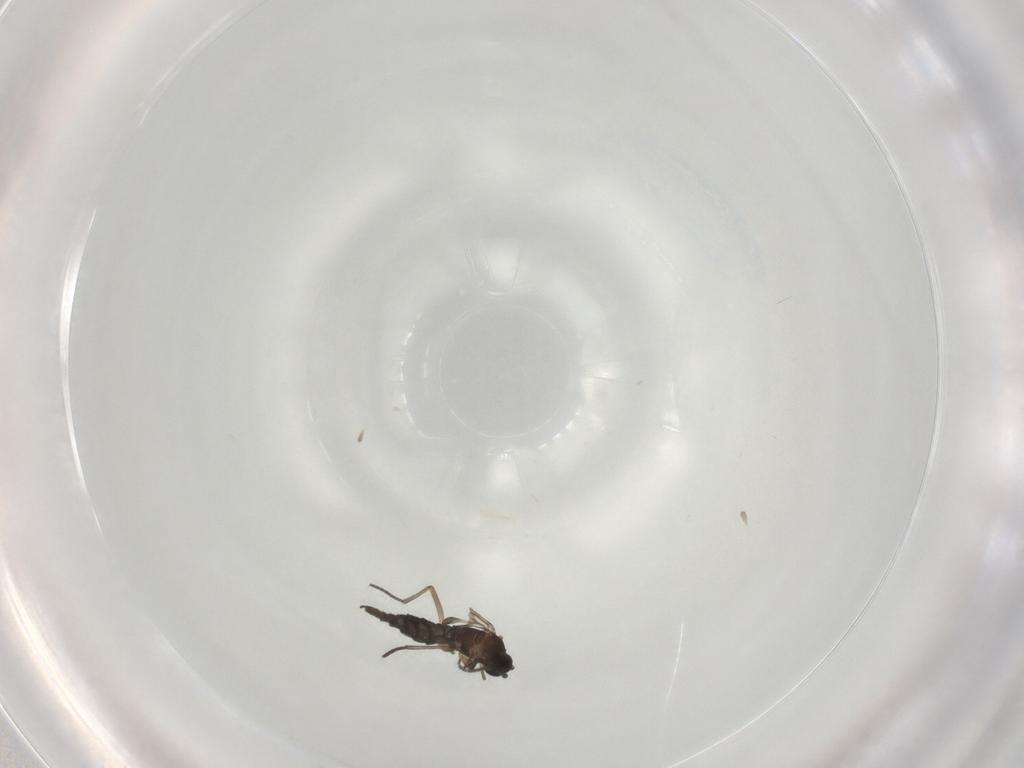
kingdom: Animalia
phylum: Arthropoda
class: Insecta
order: Diptera
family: Sciaridae
